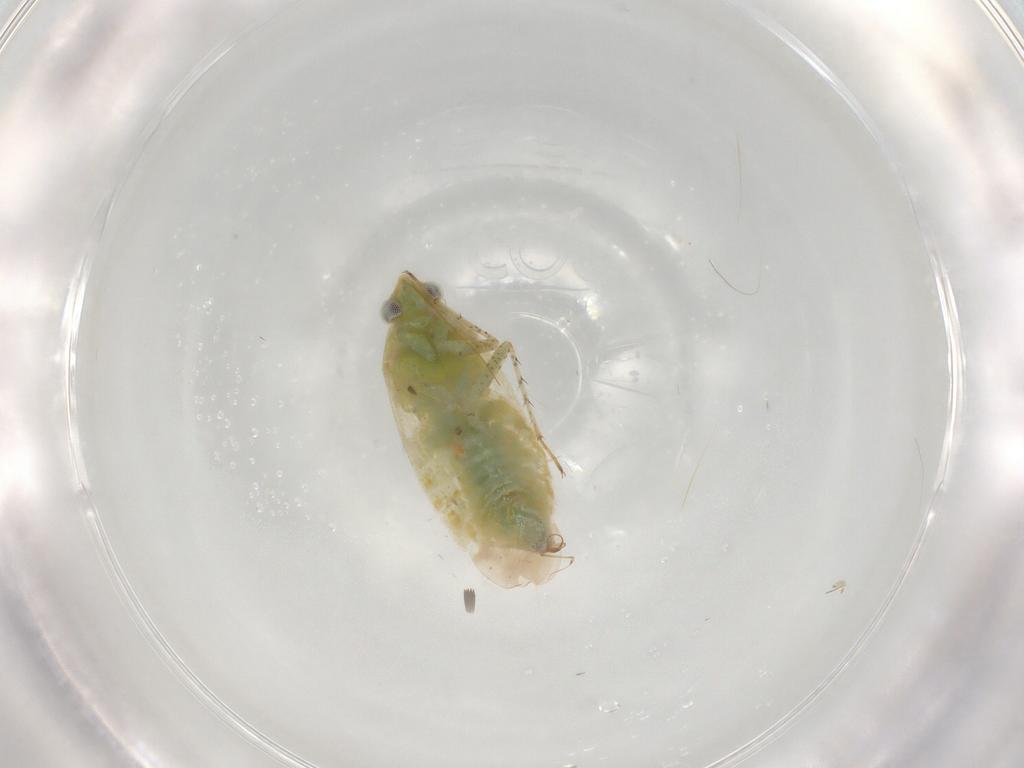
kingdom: Animalia
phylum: Arthropoda
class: Insecta
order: Hemiptera
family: Miridae
